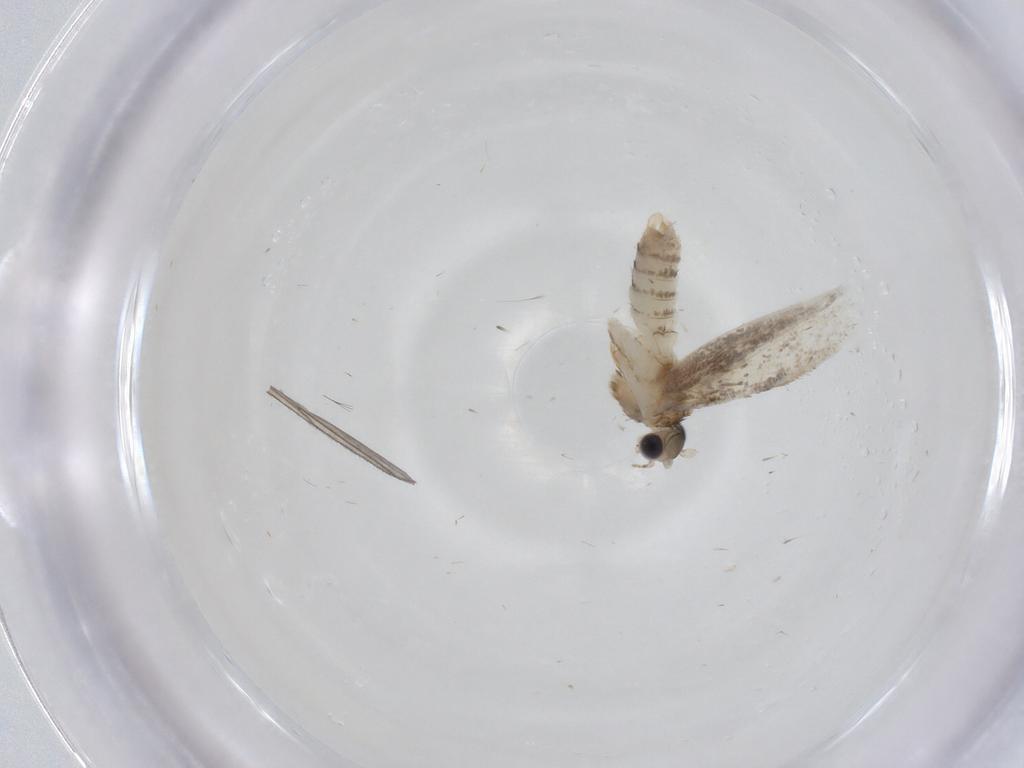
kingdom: Animalia
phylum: Arthropoda
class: Insecta
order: Lepidoptera
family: Dryadaulidae
